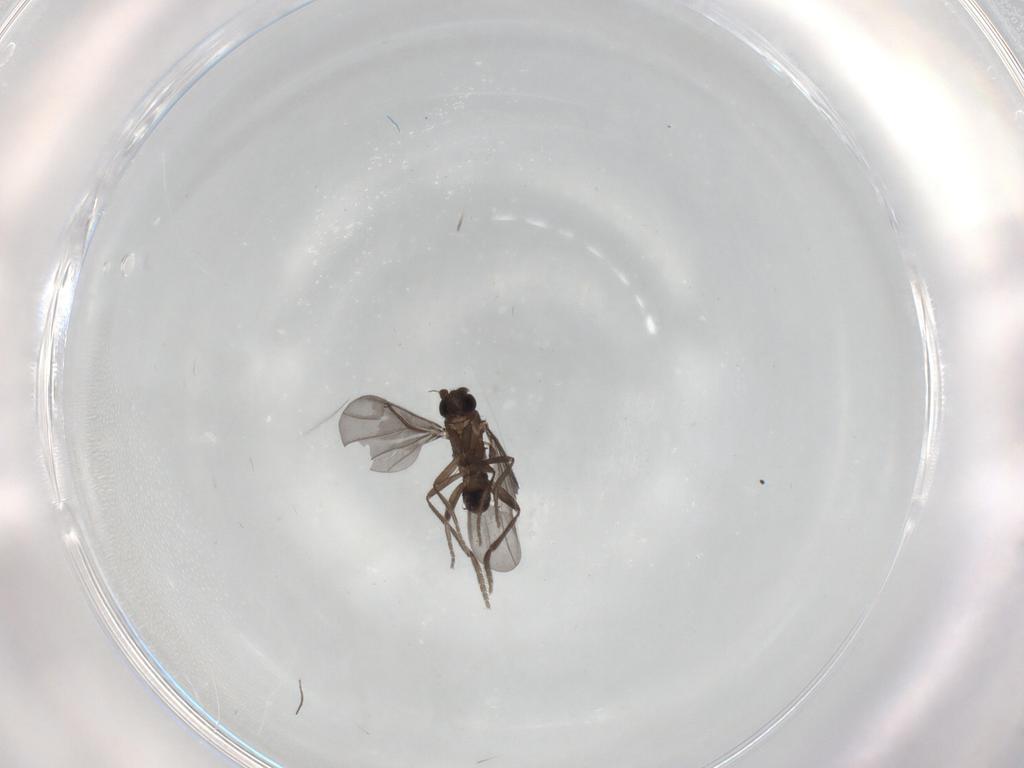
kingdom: Animalia
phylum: Arthropoda
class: Insecta
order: Diptera
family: Phoridae
